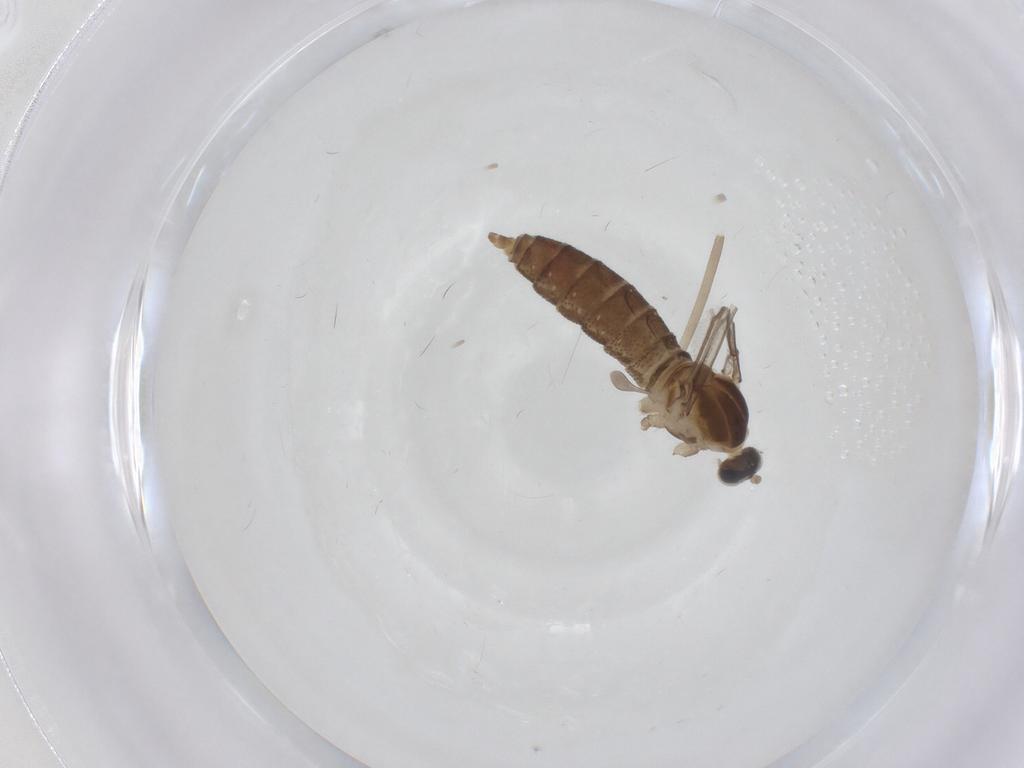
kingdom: Animalia
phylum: Arthropoda
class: Insecta
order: Diptera
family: Cecidomyiidae
